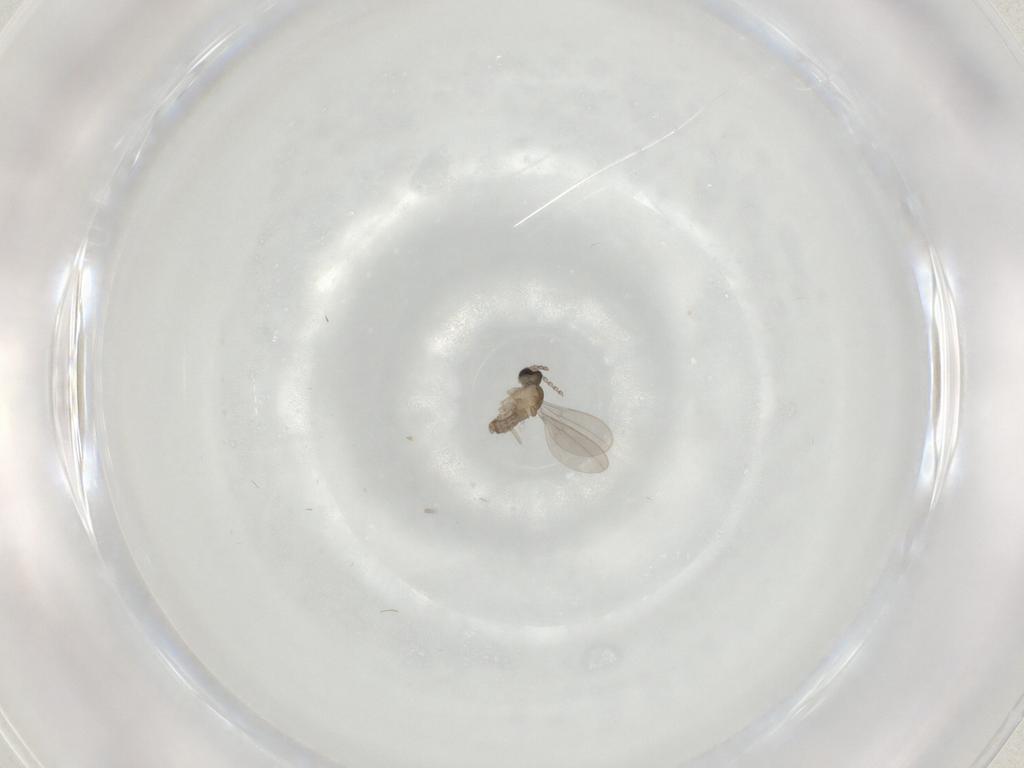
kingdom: Animalia
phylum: Arthropoda
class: Insecta
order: Diptera
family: Cecidomyiidae
